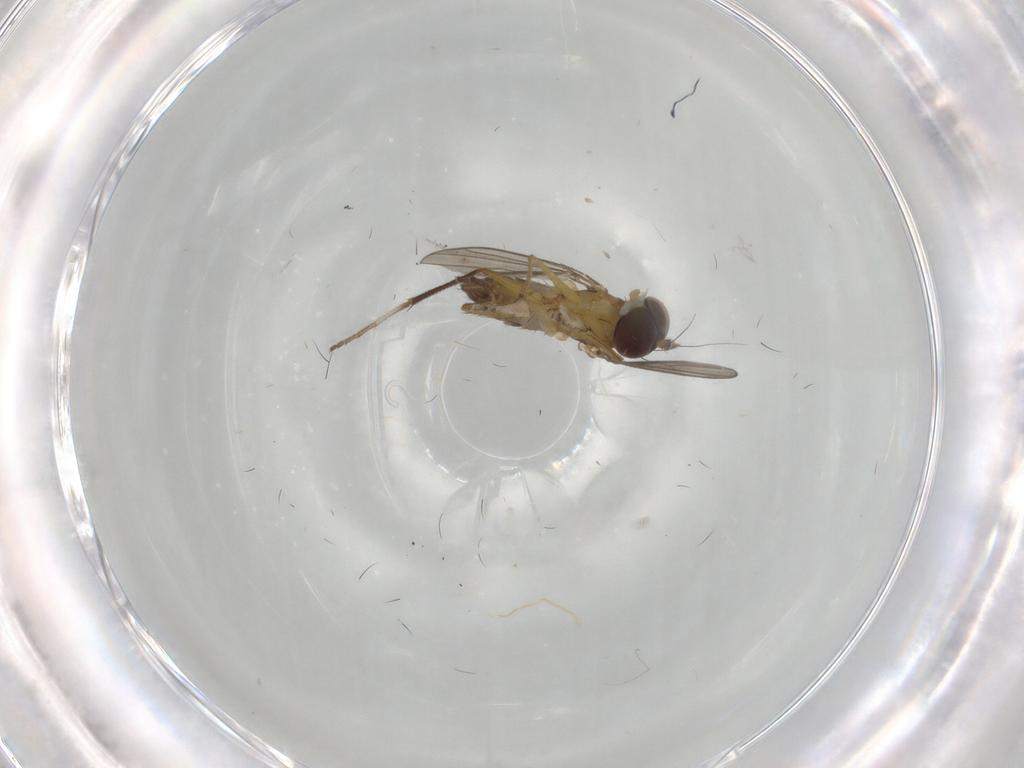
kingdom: Animalia
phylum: Arthropoda
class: Insecta
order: Diptera
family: Dolichopodidae
